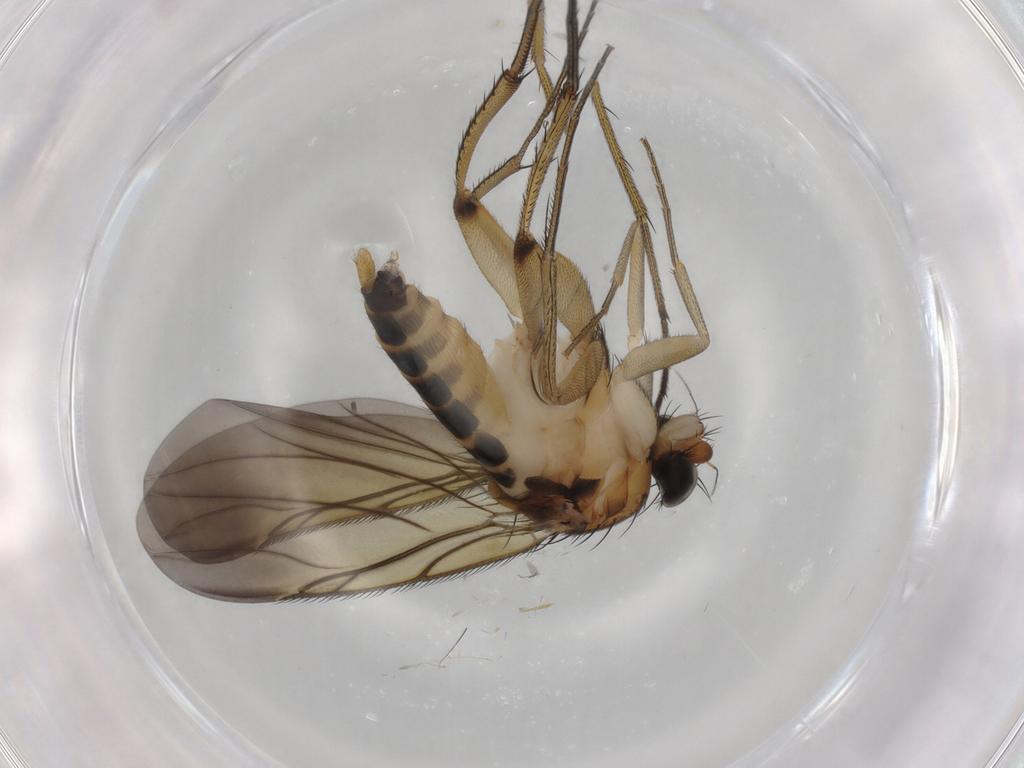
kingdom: Animalia
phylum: Arthropoda
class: Insecta
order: Diptera
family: Phoridae
